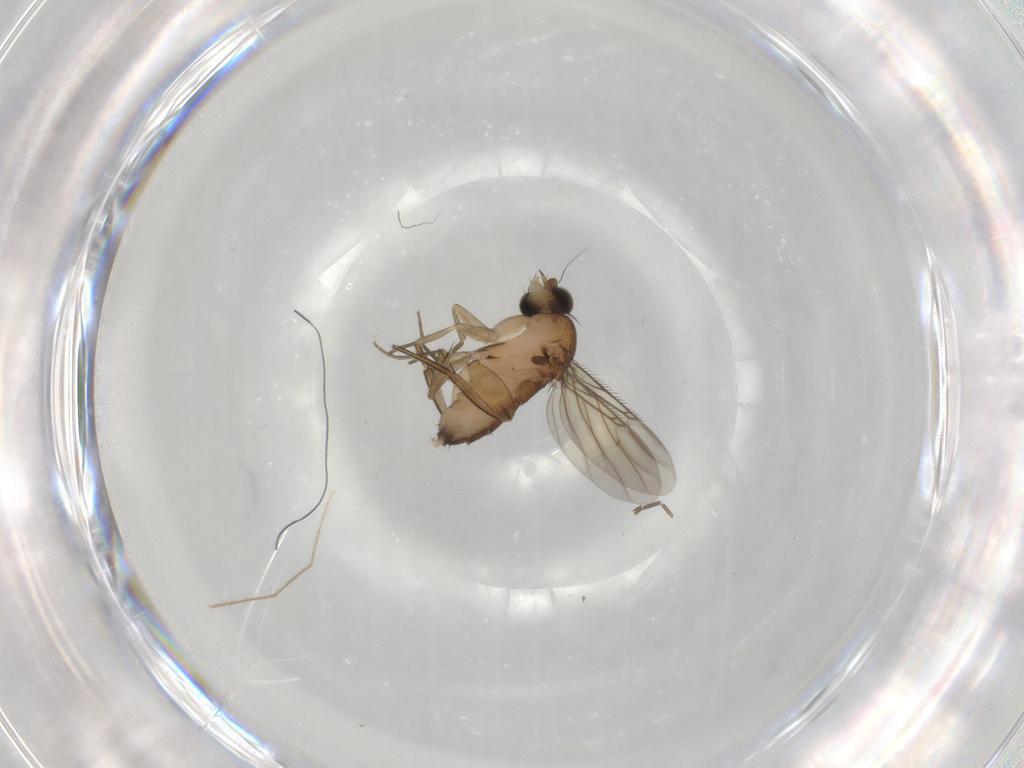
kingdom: Animalia
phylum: Arthropoda
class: Insecta
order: Diptera
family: Phoridae
